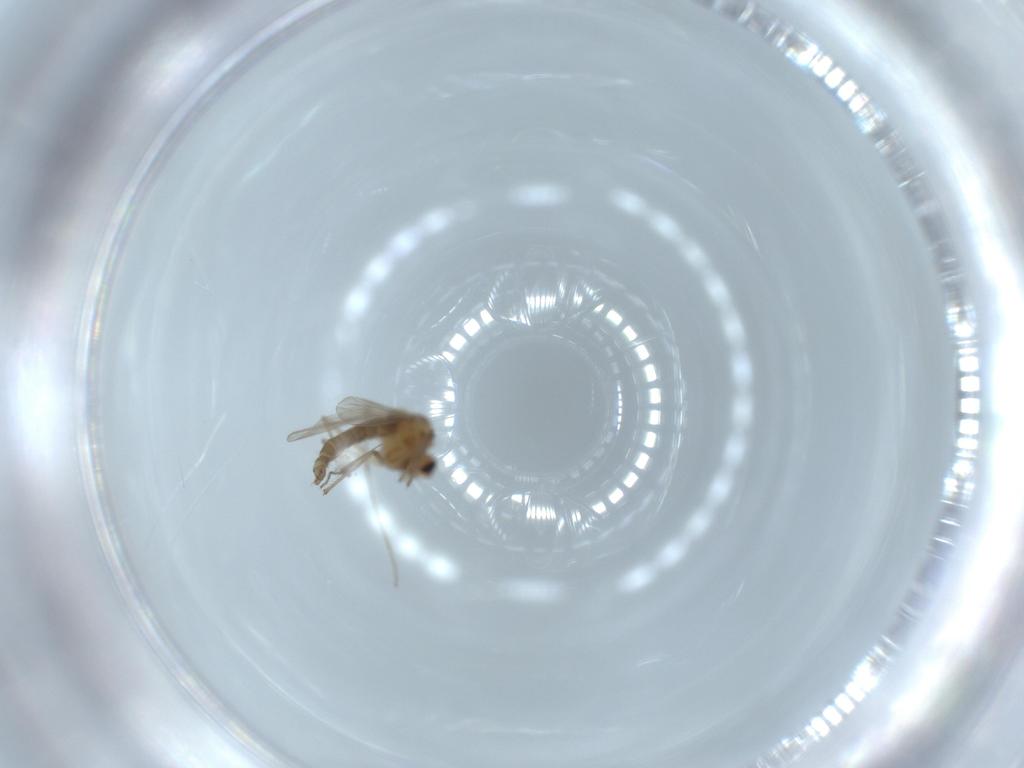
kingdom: Animalia
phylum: Arthropoda
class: Insecta
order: Diptera
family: Chironomidae
